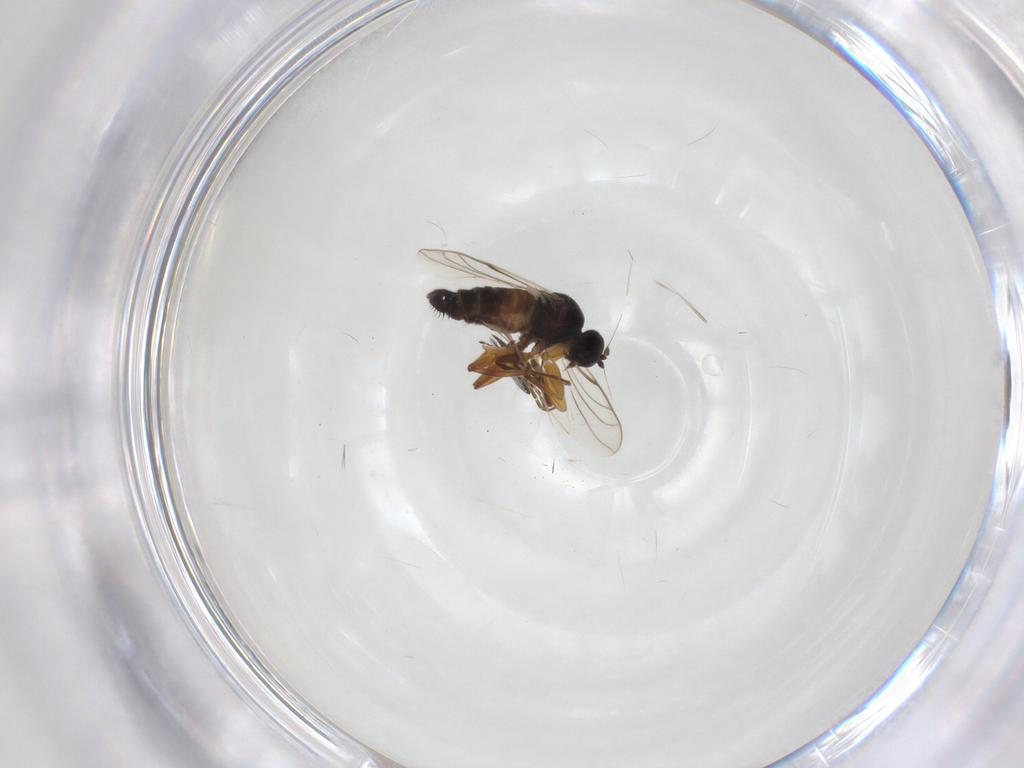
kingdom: Animalia
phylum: Arthropoda
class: Insecta
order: Diptera
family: Hybotidae
